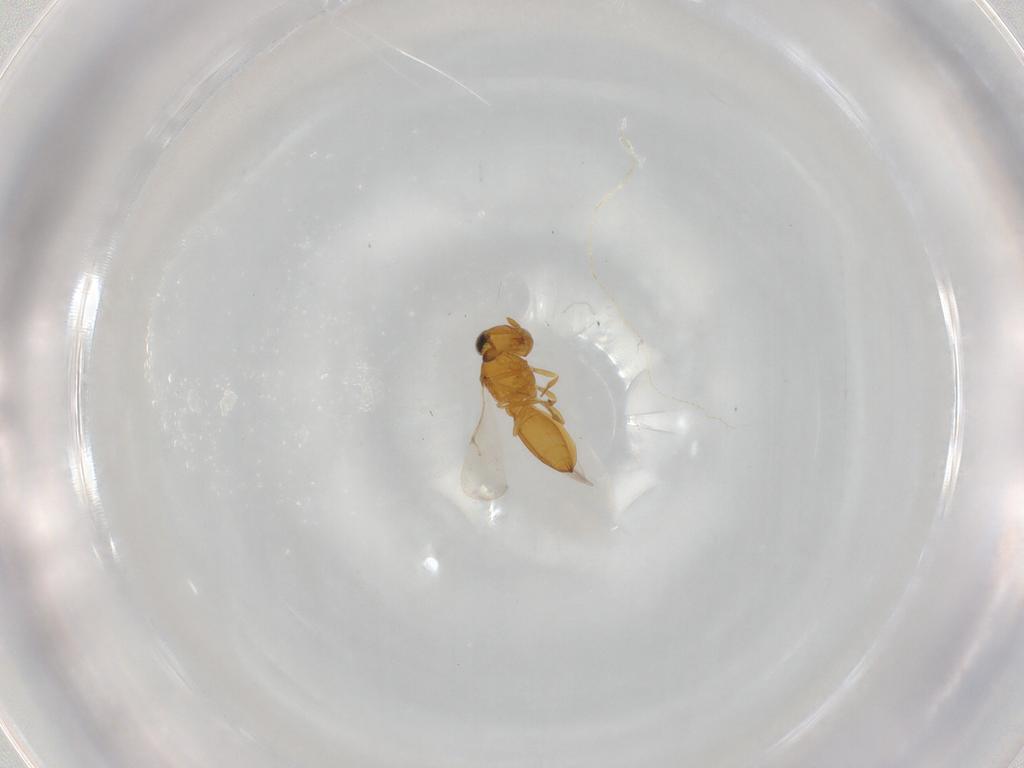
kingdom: Animalia
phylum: Arthropoda
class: Insecta
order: Hymenoptera
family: Scelionidae
